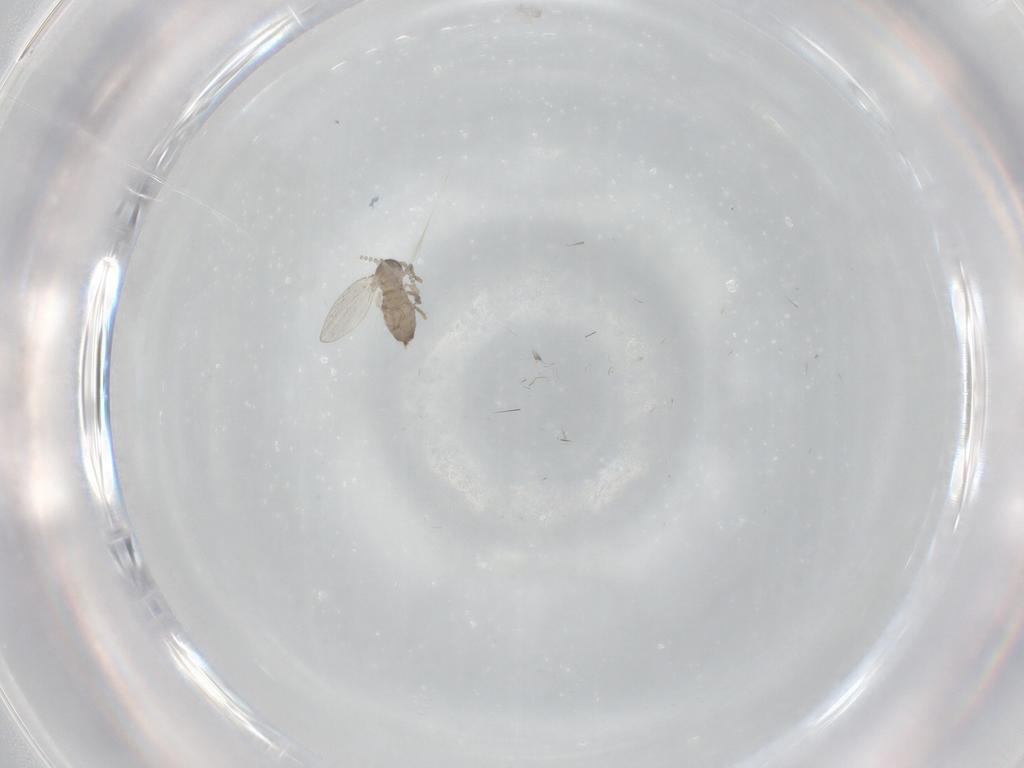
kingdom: Animalia
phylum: Arthropoda
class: Insecta
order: Diptera
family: Psychodidae
